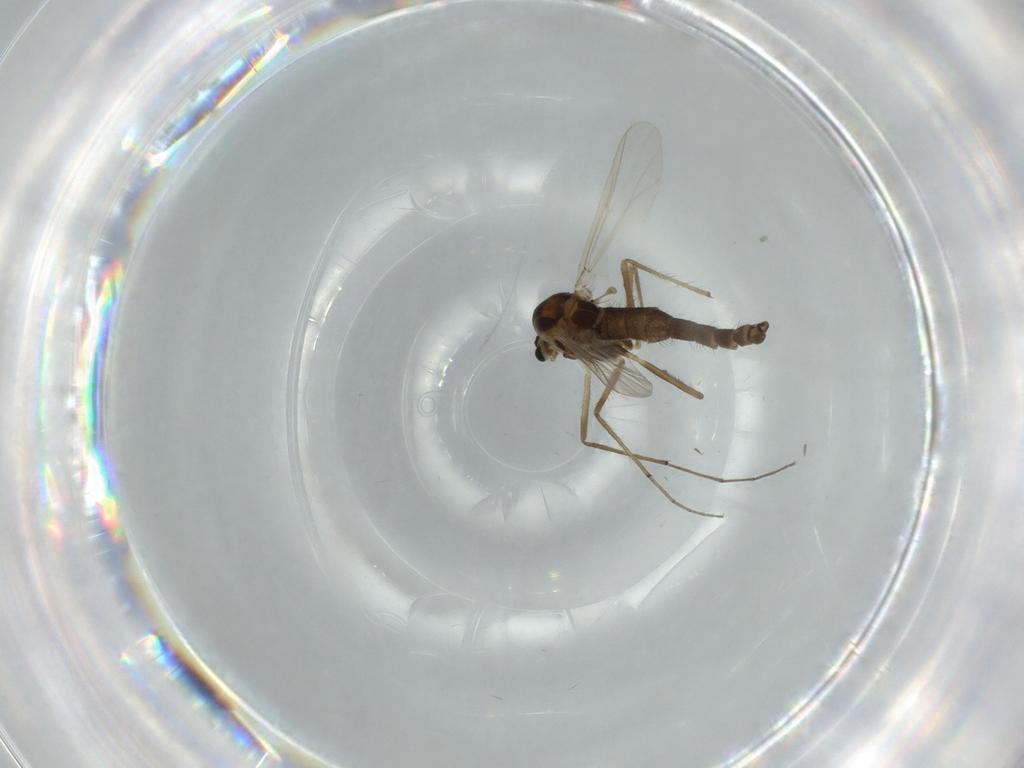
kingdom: Animalia
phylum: Arthropoda
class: Insecta
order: Diptera
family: Chironomidae
